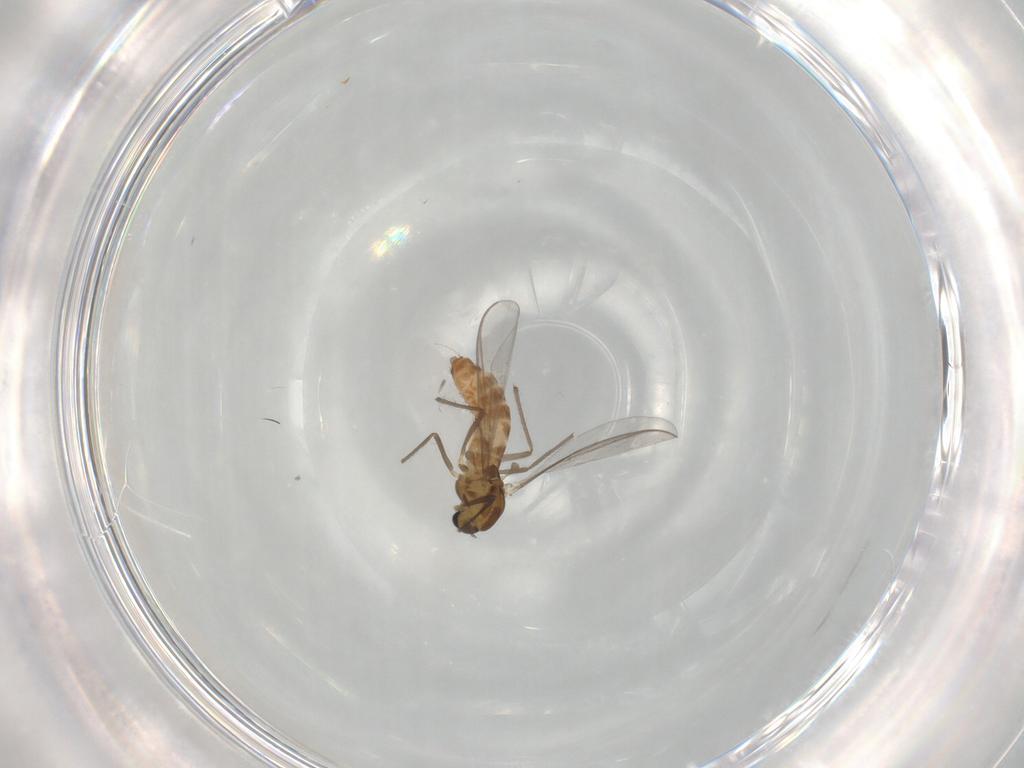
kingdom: Animalia
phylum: Arthropoda
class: Insecta
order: Diptera
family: Chironomidae
